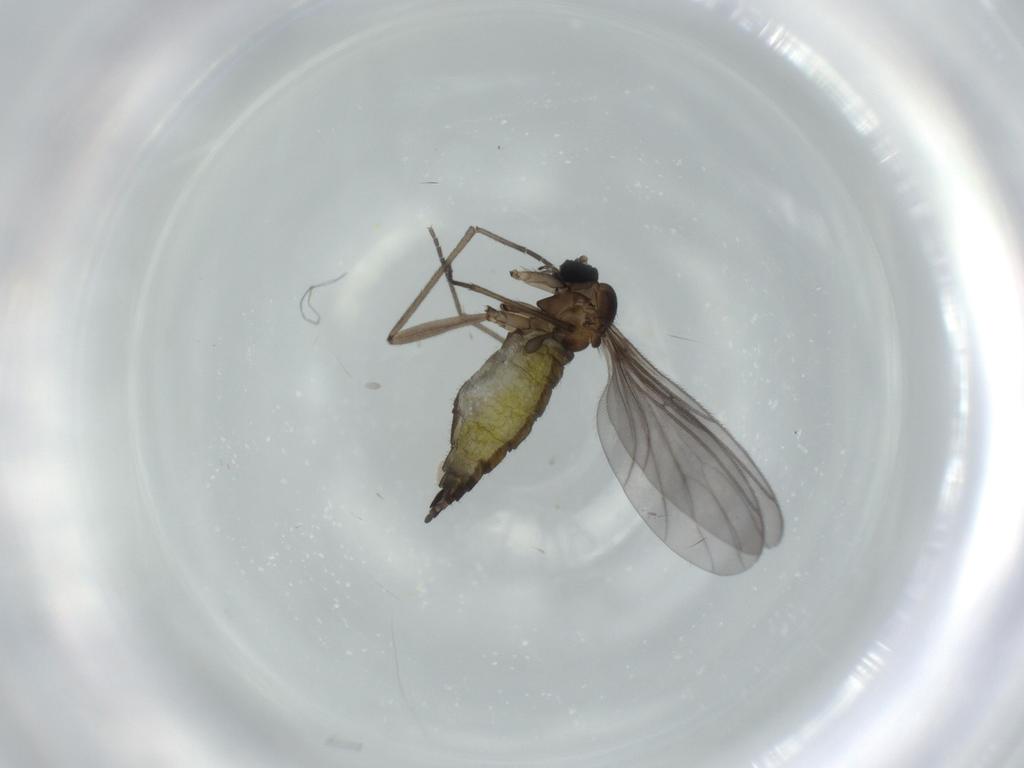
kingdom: Animalia
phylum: Arthropoda
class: Insecta
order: Diptera
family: Sciaridae
